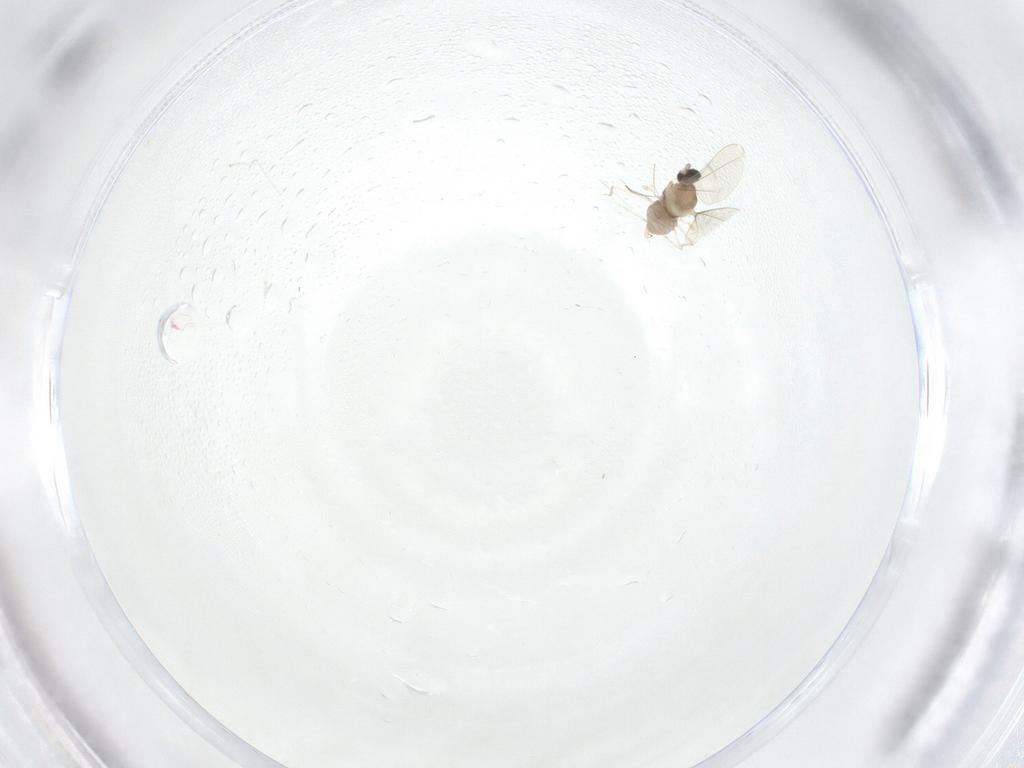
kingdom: Animalia
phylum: Arthropoda
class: Insecta
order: Diptera
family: Cecidomyiidae
